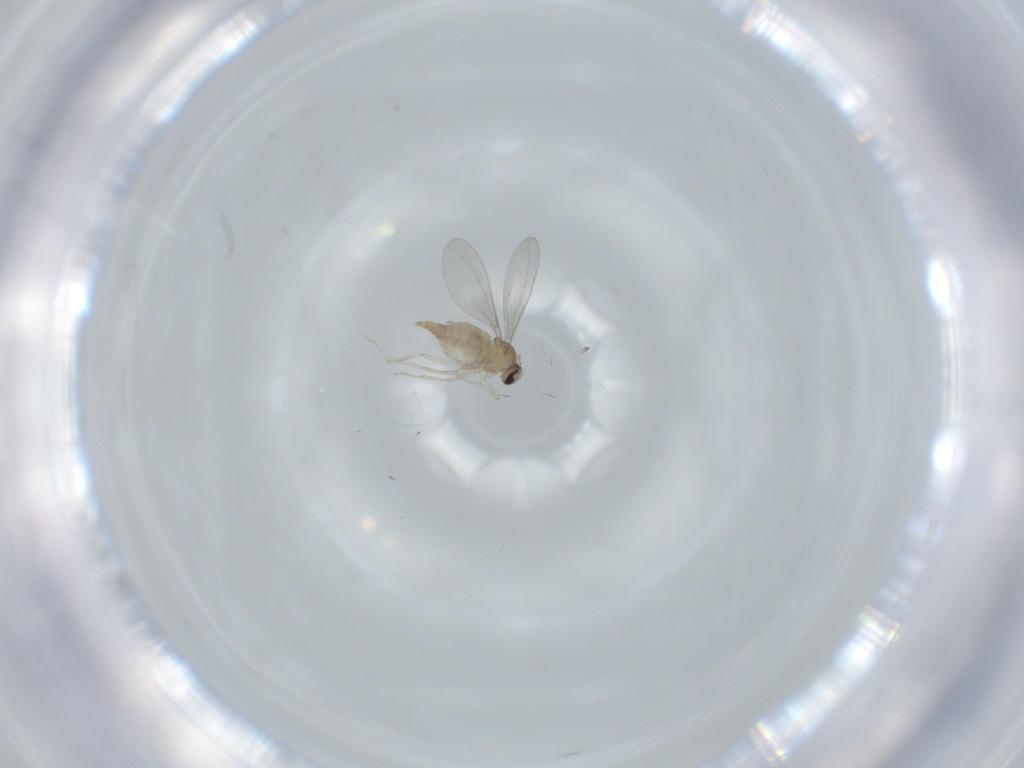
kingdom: Animalia
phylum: Arthropoda
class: Insecta
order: Diptera
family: Cecidomyiidae
